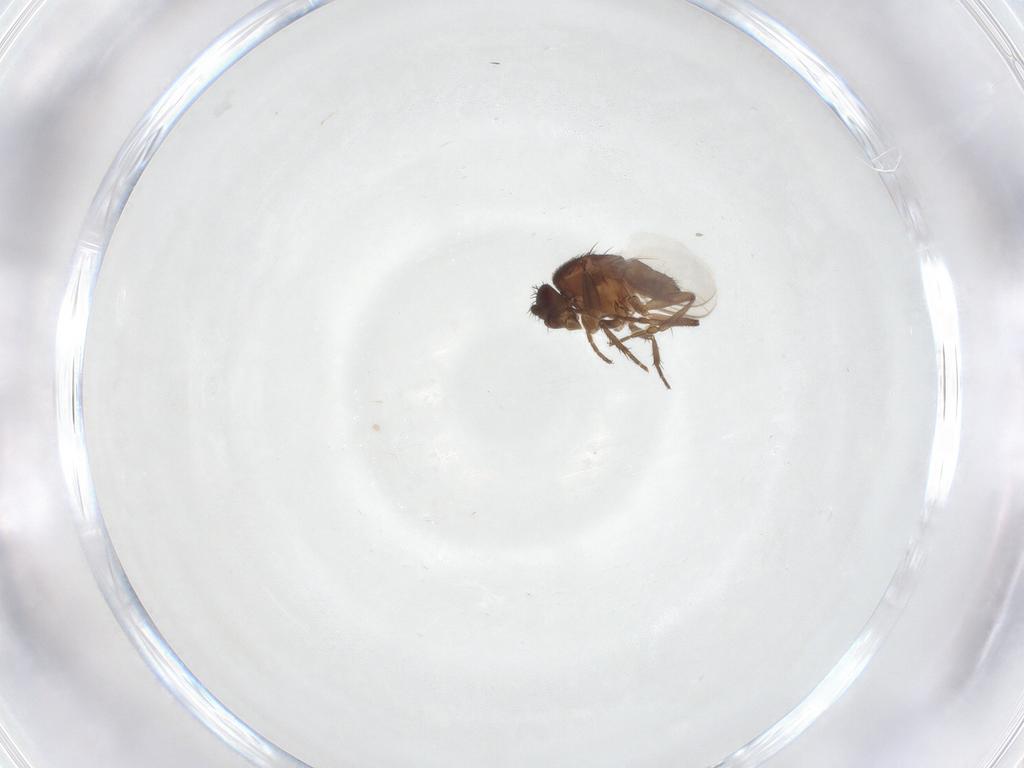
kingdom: Animalia
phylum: Arthropoda
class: Insecta
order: Diptera
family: Sphaeroceridae
